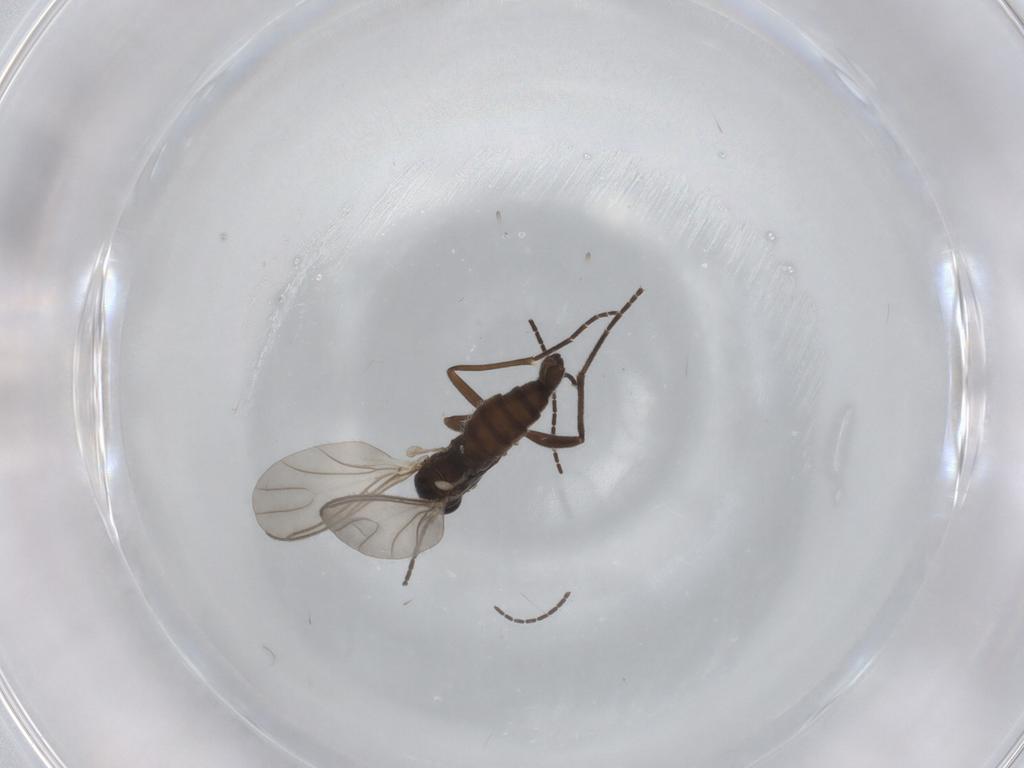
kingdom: Animalia
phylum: Arthropoda
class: Insecta
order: Diptera
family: Sciaridae
